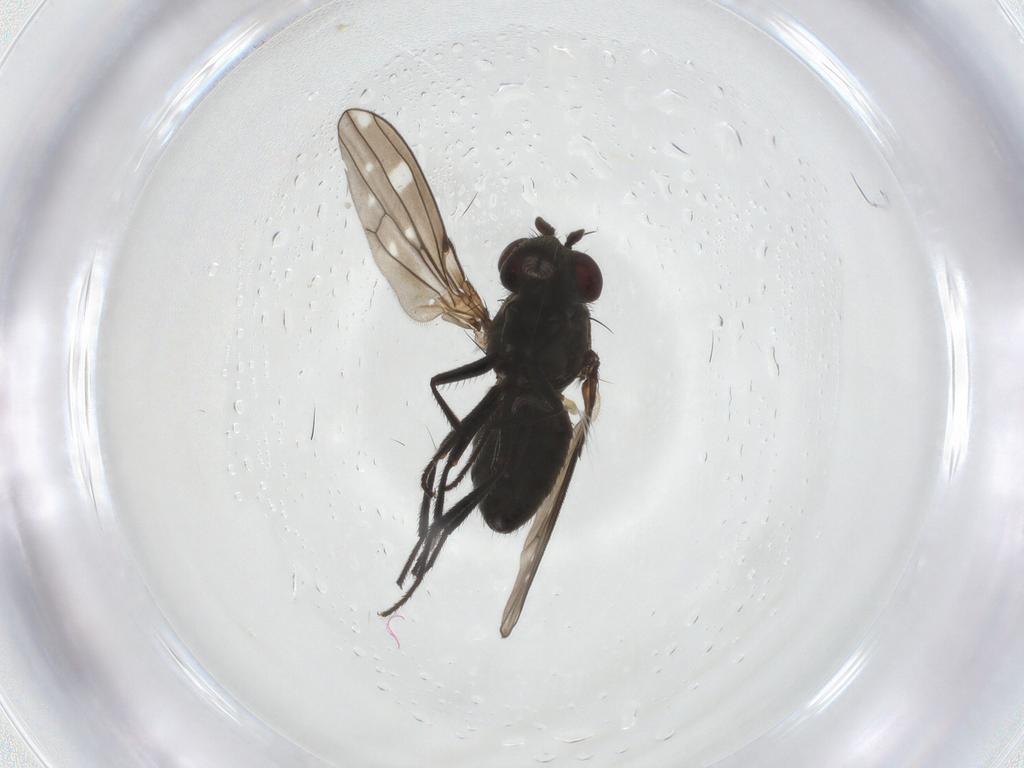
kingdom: Animalia
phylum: Arthropoda
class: Insecta
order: Diptera
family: Ephydridae
